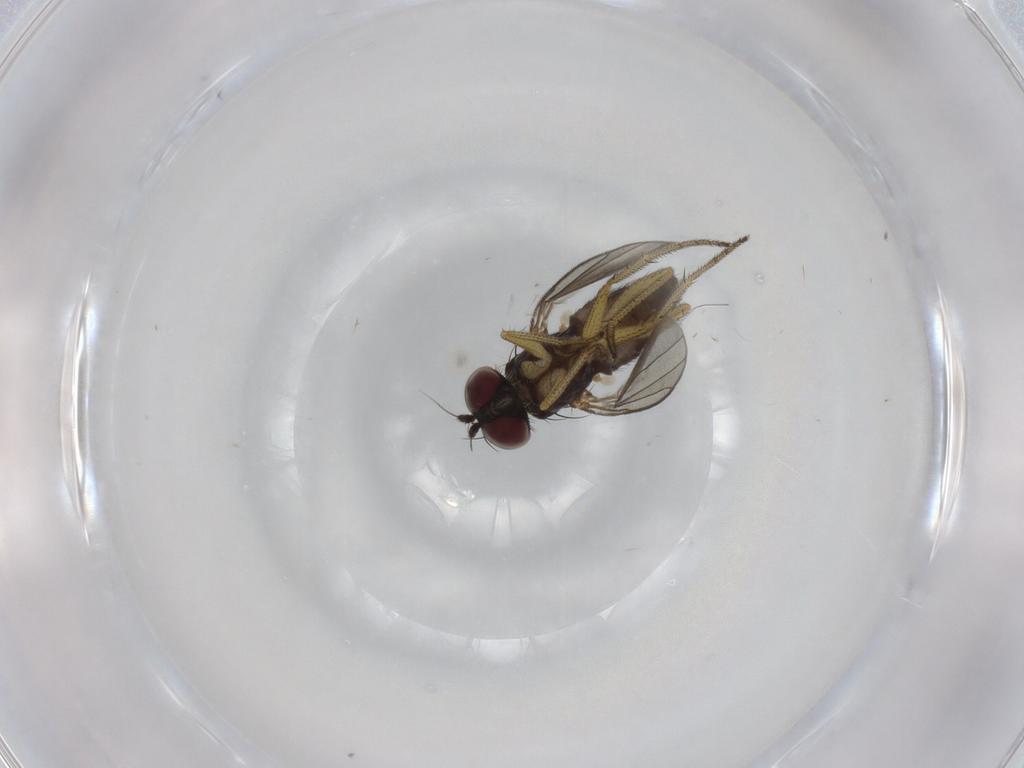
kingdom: Animalia
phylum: Arthropoda
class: Insecta
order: Diptera
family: Dolichopodidae
